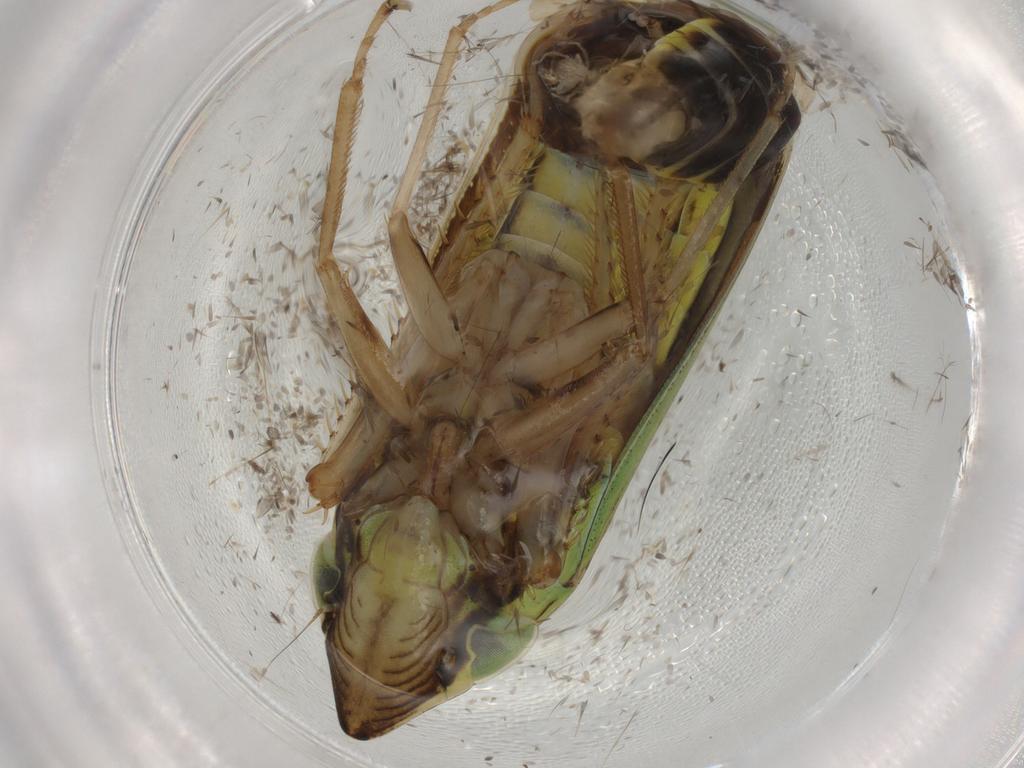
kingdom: Animalia
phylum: Arthropoda
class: Insecta
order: Hemiptera
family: Cicadellidae
